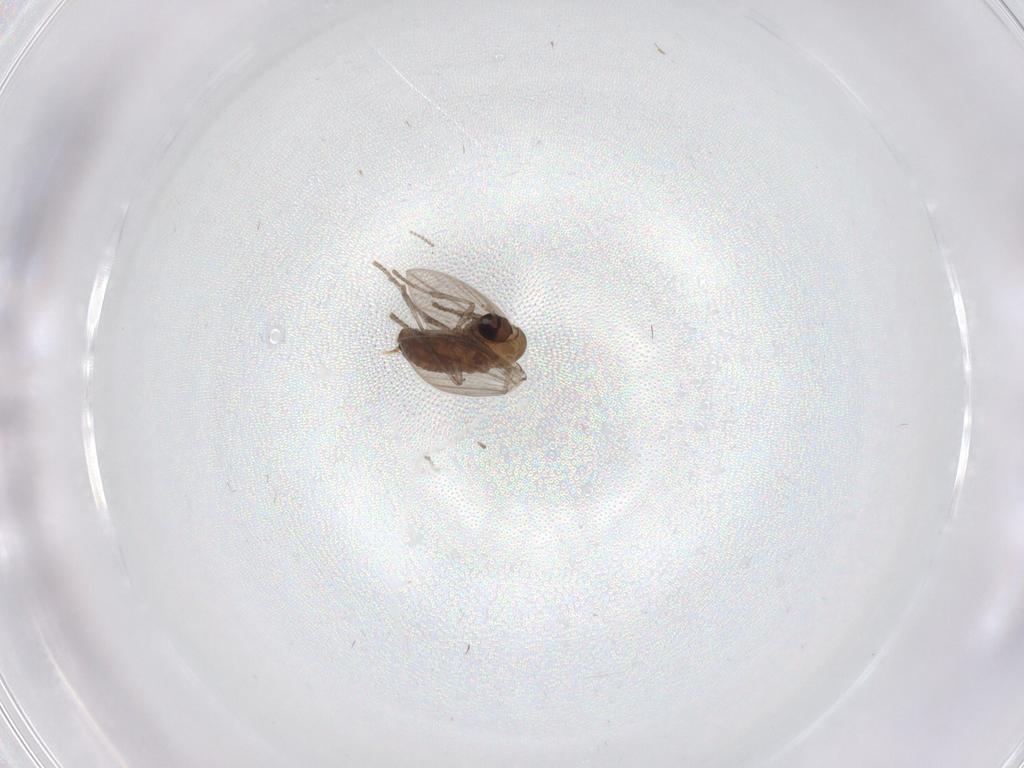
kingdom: Animalia
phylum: Arthropoda
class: Insecta
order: Diptera
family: Psychodidae
